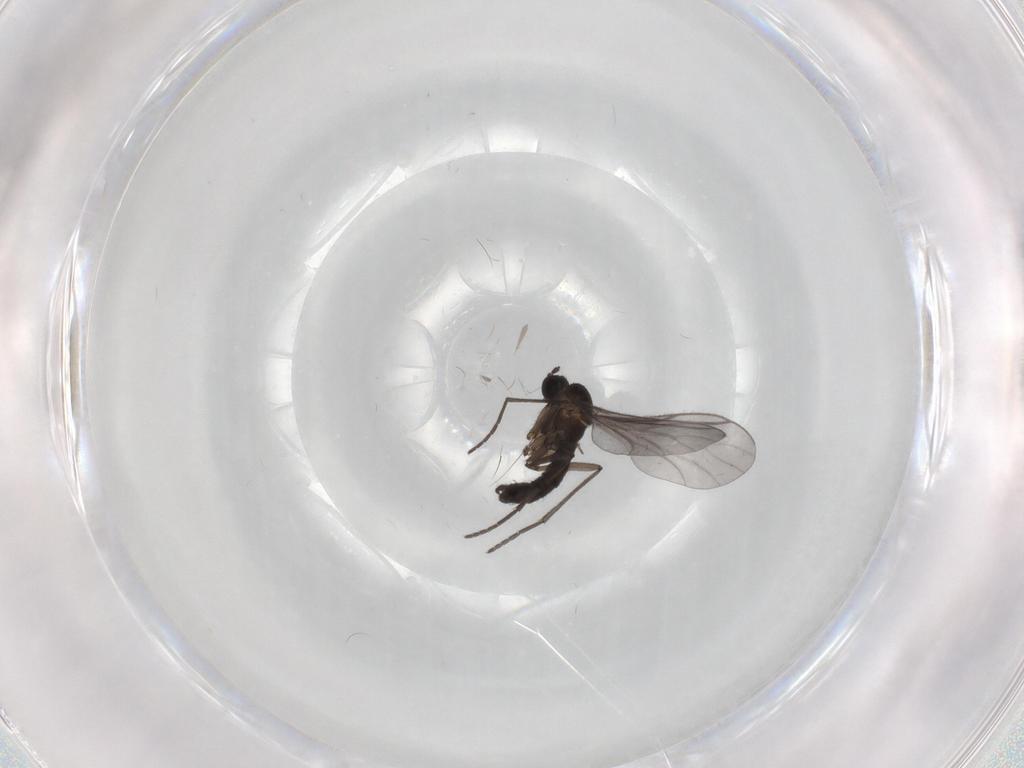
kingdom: Animalia
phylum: Arthropoda
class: Insecta
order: Diptera
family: Sciaridae
